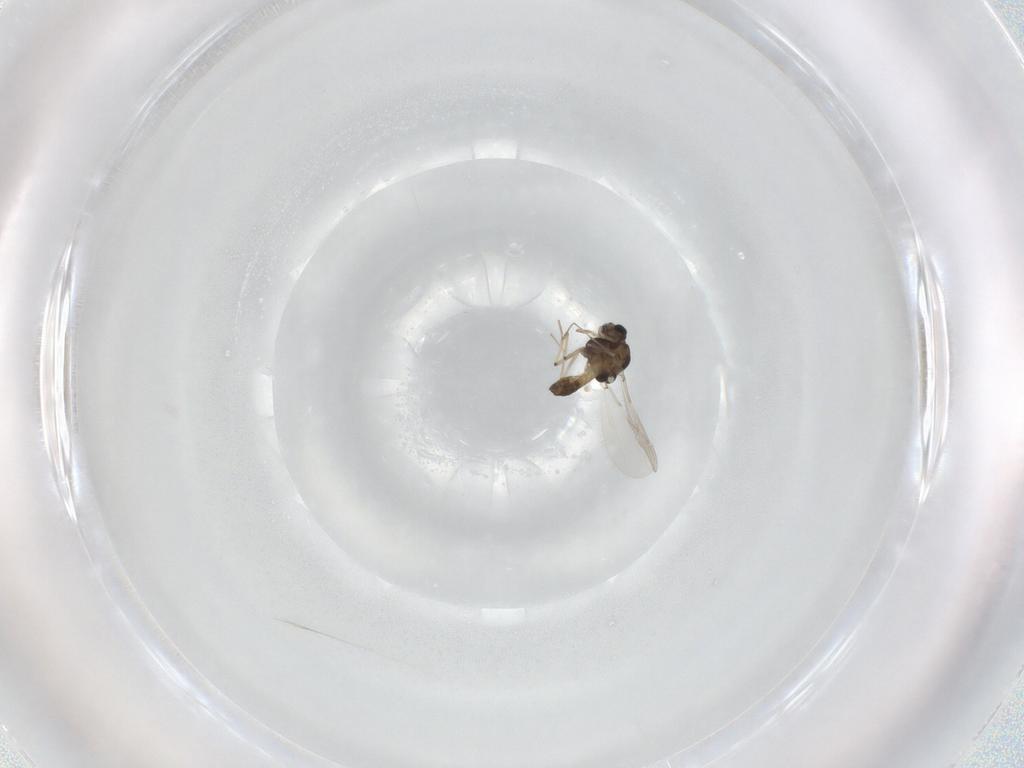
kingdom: Animalia
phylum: Arthropoda
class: Insecta
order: Diptera
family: Chironomidae
